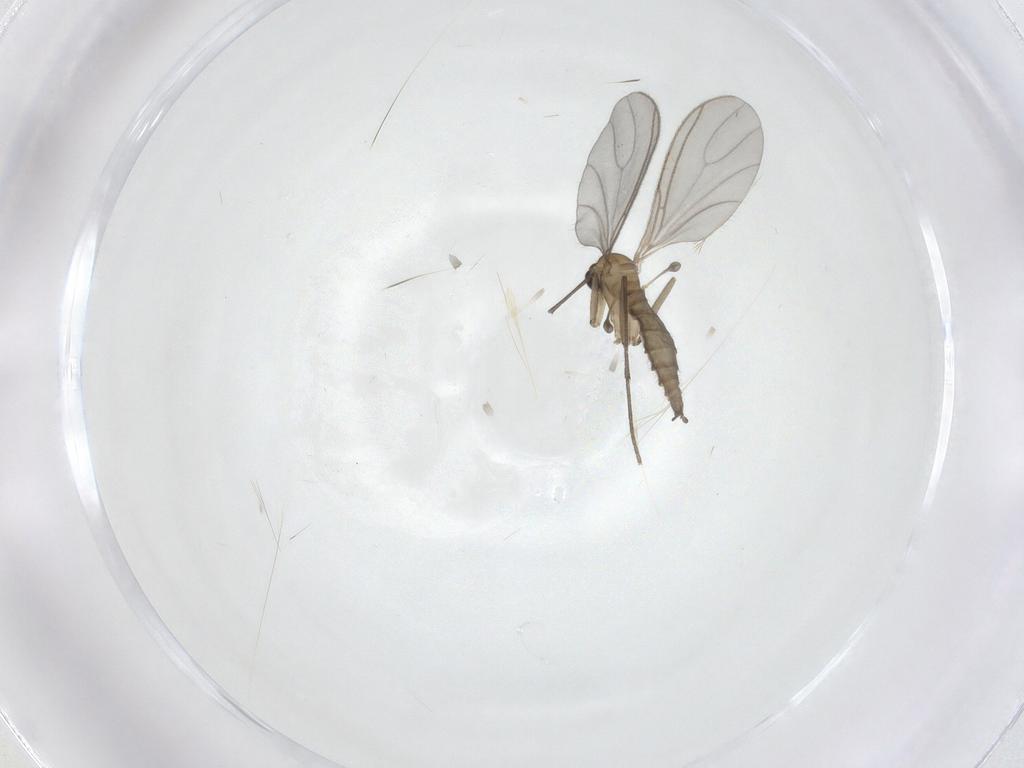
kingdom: Animalia
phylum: Arthropoda
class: Insecta
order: Diptera
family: Sciaridae
